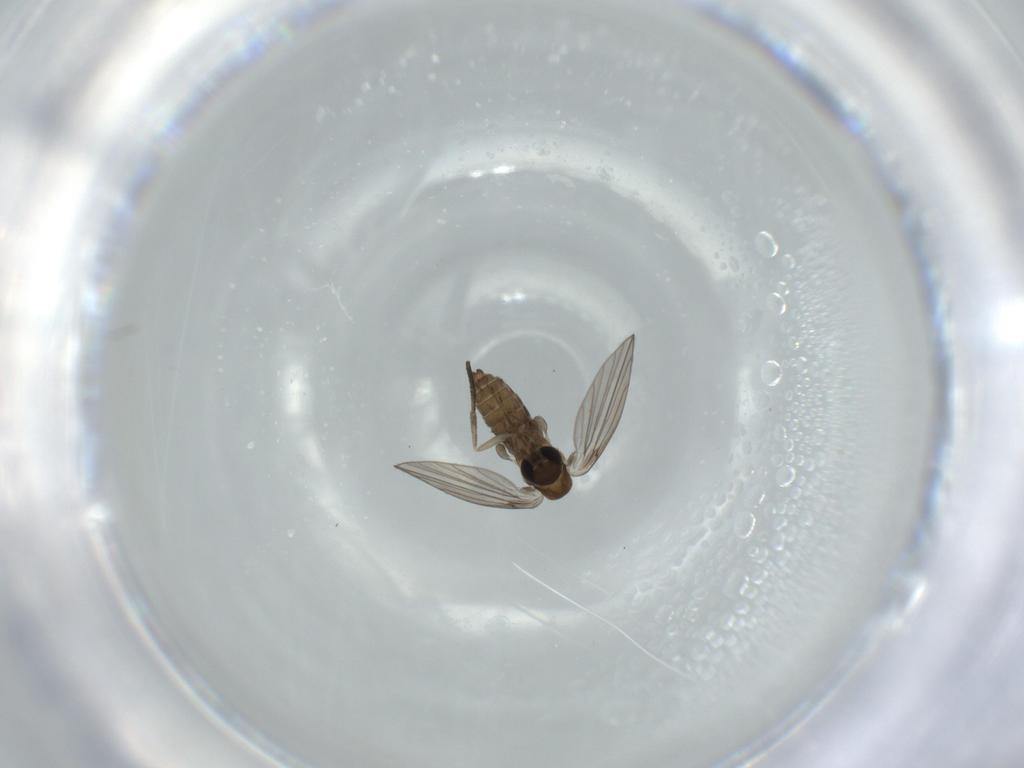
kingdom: Animalia
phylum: Arthropoda
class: Insecta
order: Diptera
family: Psychodidae
